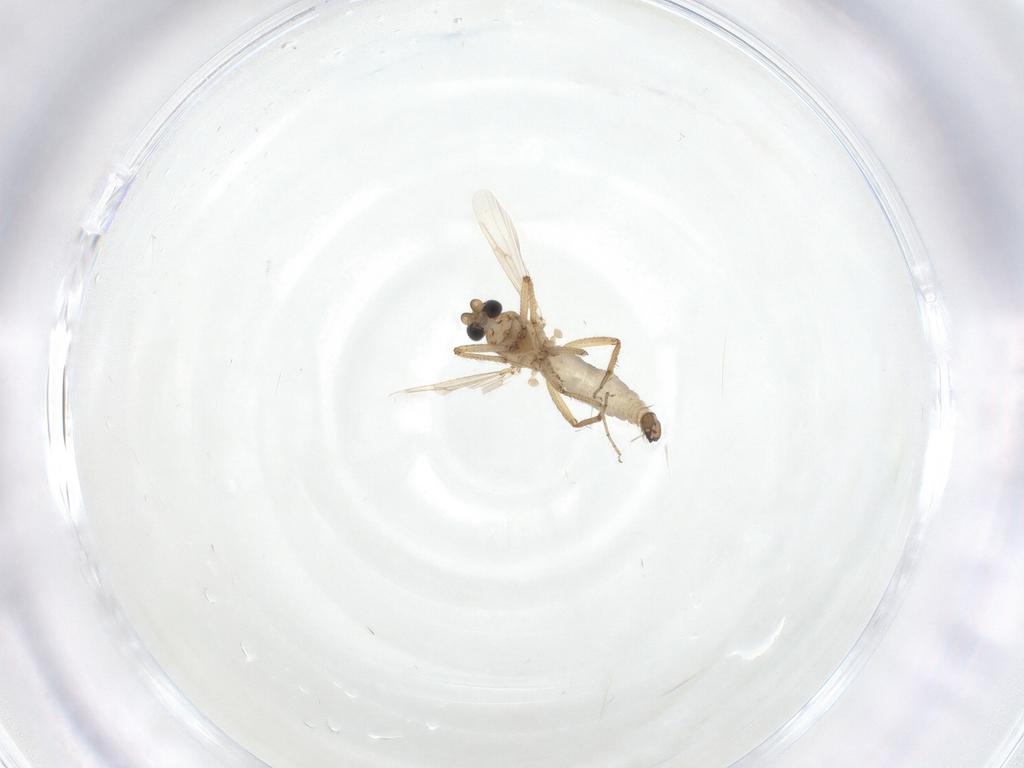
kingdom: Animalia
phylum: Arthropoda
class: Insecta
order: Diptera
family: Ceratopogonidae
